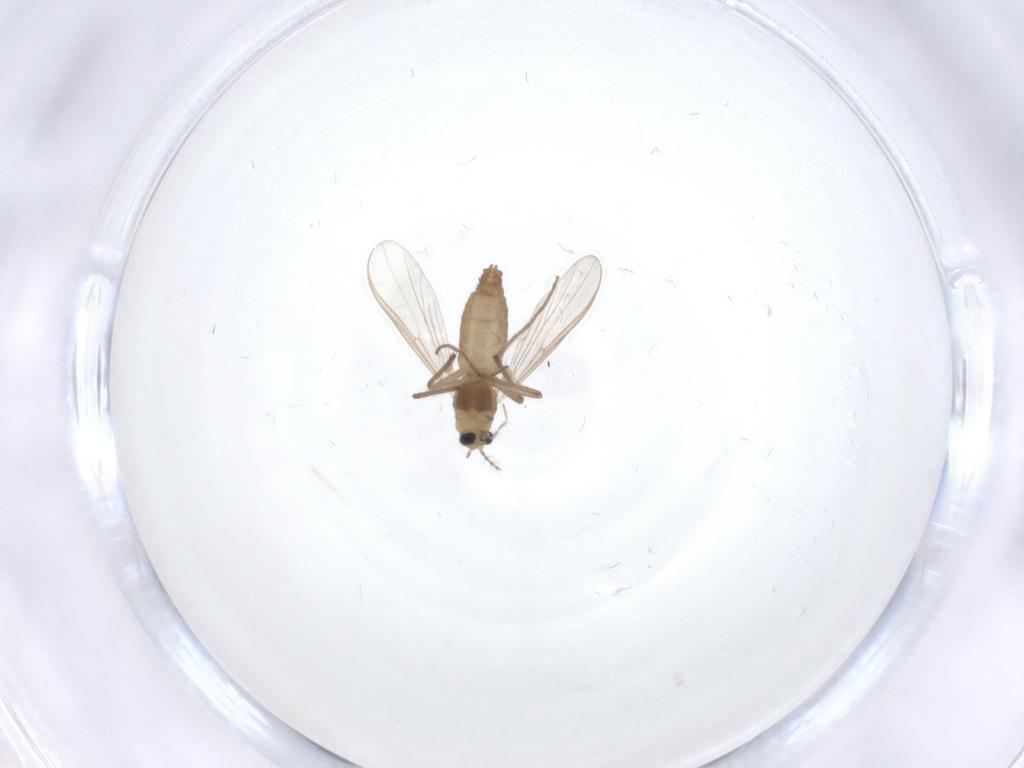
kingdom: Animalia
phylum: Arthropoda
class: Insecta
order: Diptera
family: Chironomidae
